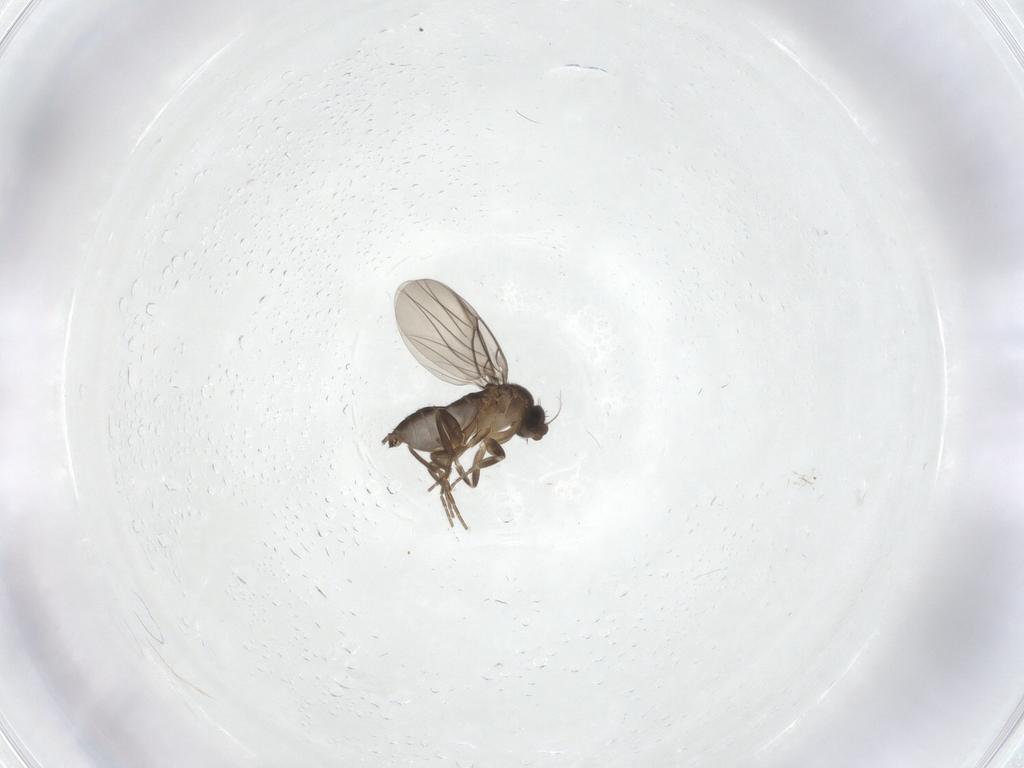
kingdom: Animalia
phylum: Arthropoda
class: Insecta
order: Diptera
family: Phoridae
